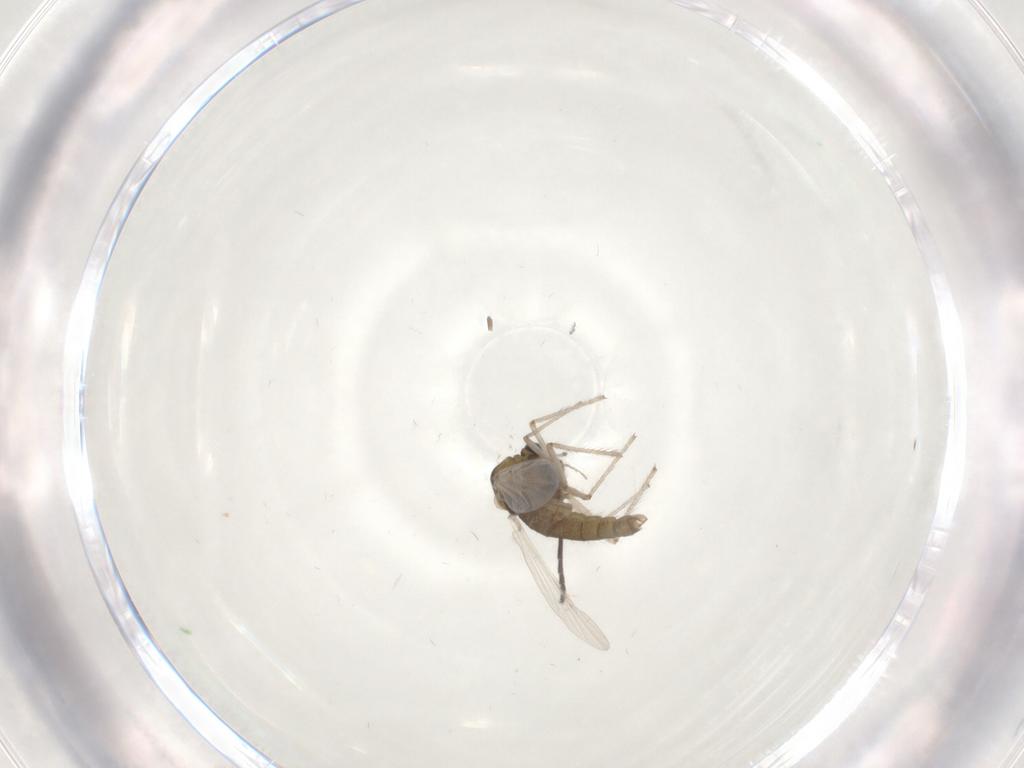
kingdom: Animalia
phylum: Arthropoda
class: Insecta
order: Diptera
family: Sciaridae
